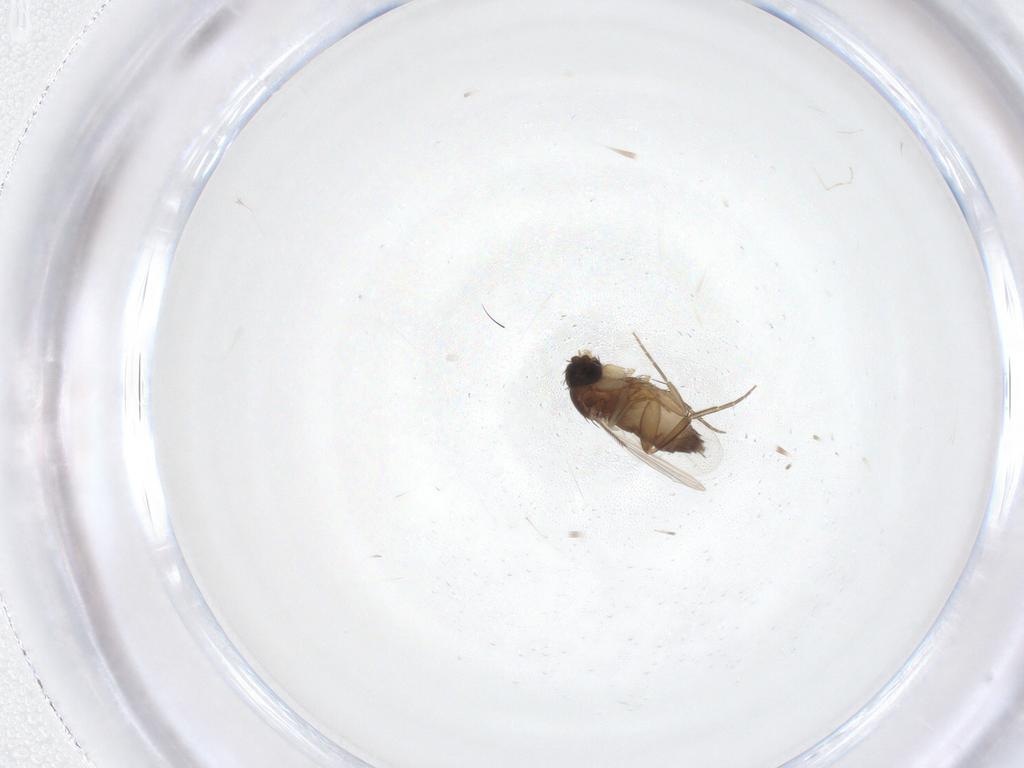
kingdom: Animalia
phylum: Arthropoda
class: Insecta
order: Diptera
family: Phoridae
